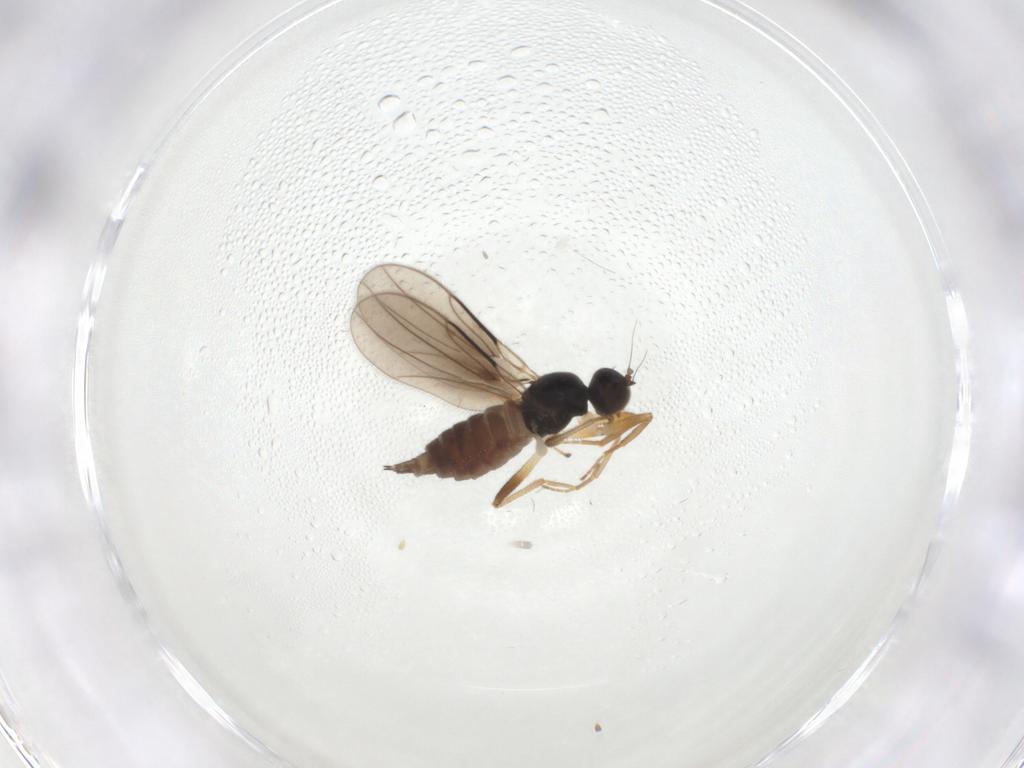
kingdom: Animalia
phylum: Arthropoda
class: Insecta
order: Diptera
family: Hybotidae
